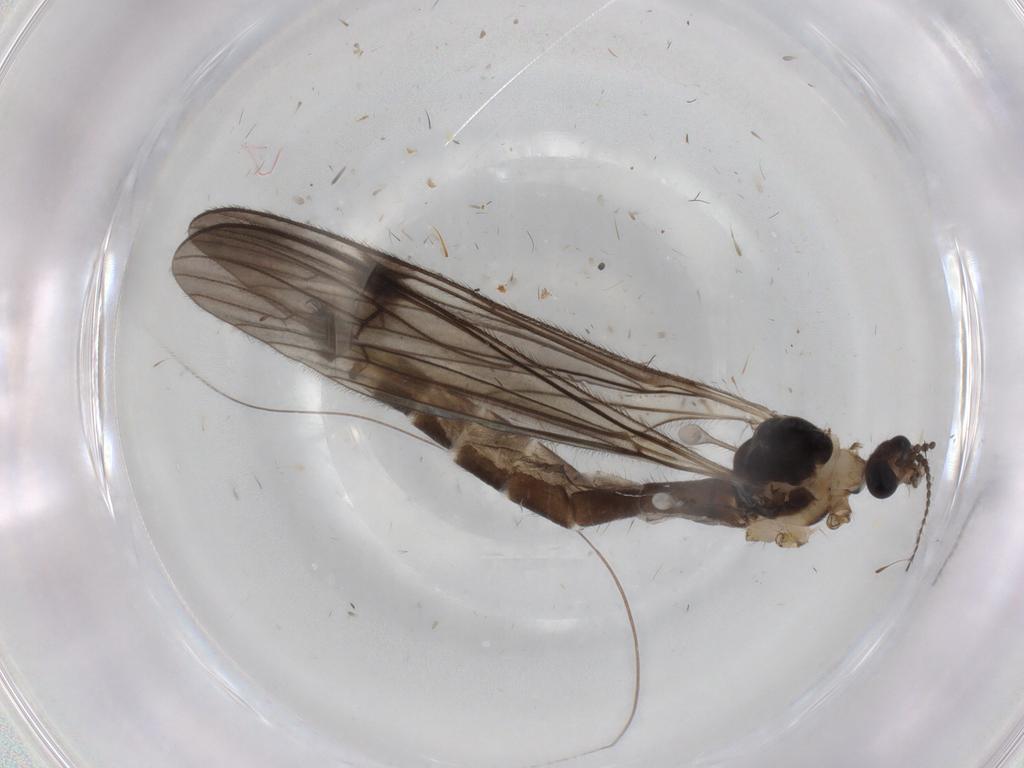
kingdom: Animalia
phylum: Arthropoda
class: Insecta
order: Diptera
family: Cecidomyiidae
